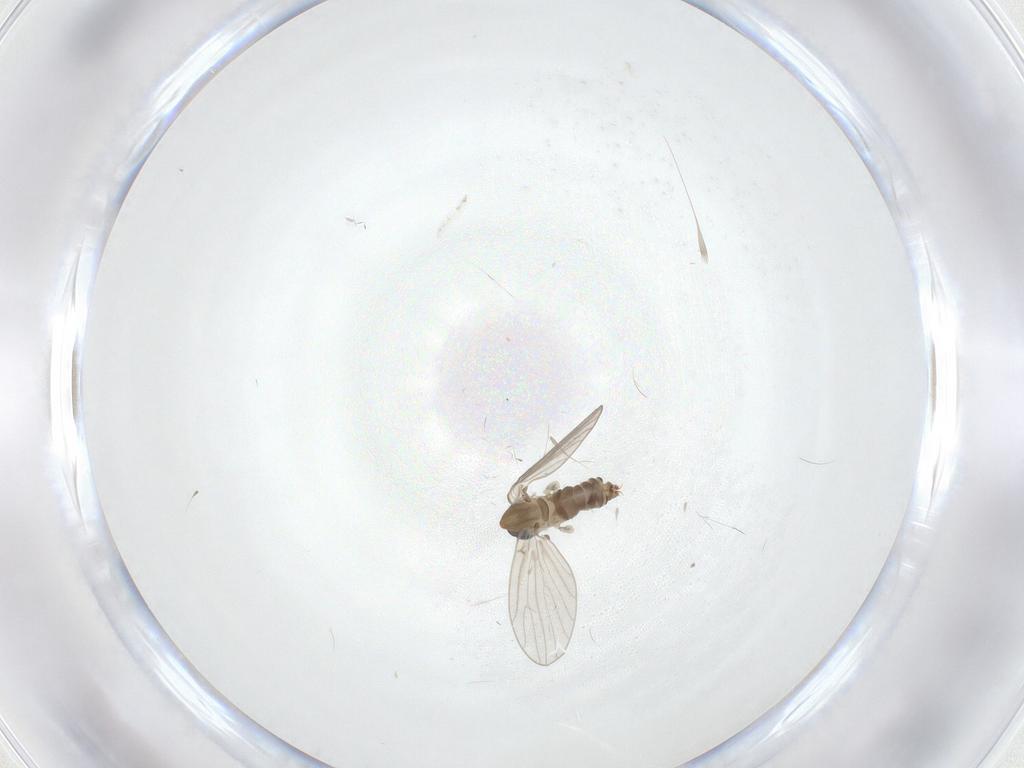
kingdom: Animalia
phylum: Arthropoda
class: Insecta
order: Diptera
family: Psychodidae
